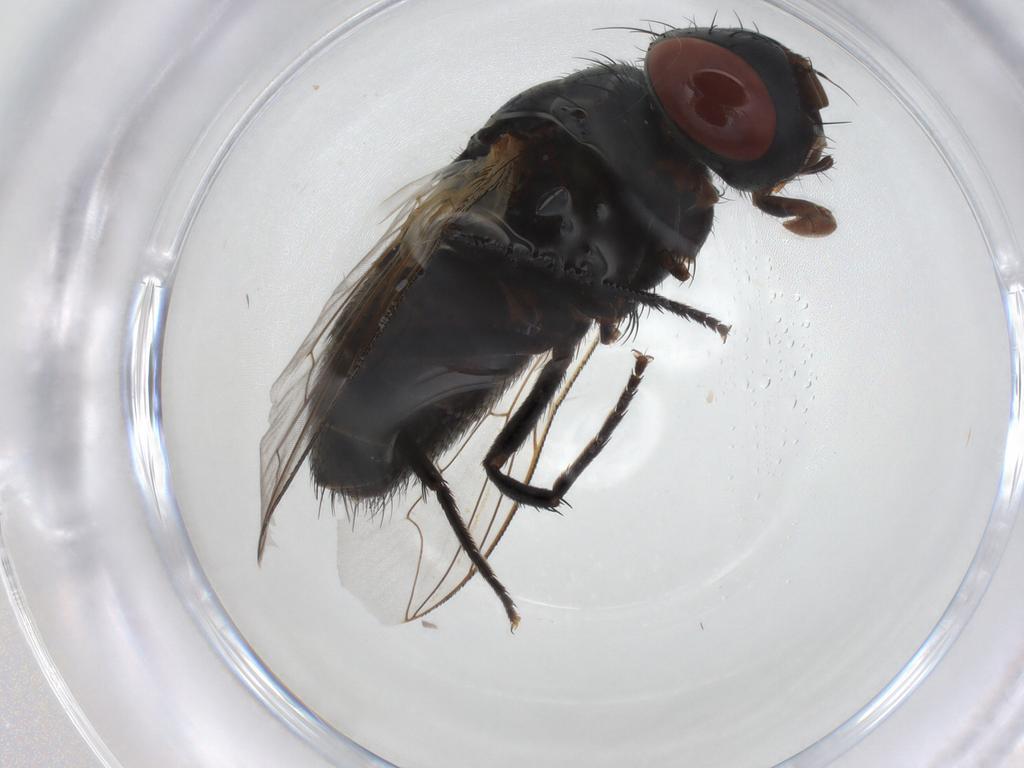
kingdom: Animalia
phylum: Arthropoda
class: Insecta
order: Diptera
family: Sarcophagidae
